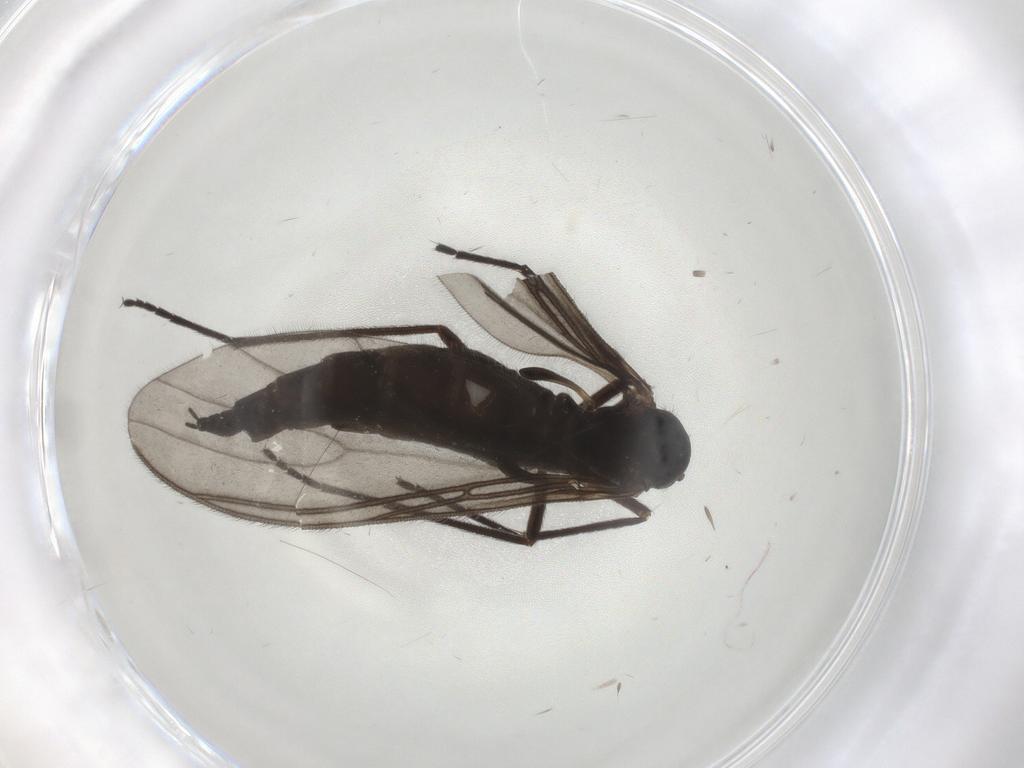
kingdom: Animalia
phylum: Arthropoda
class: Insecta
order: Diptera
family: Sciaridae
